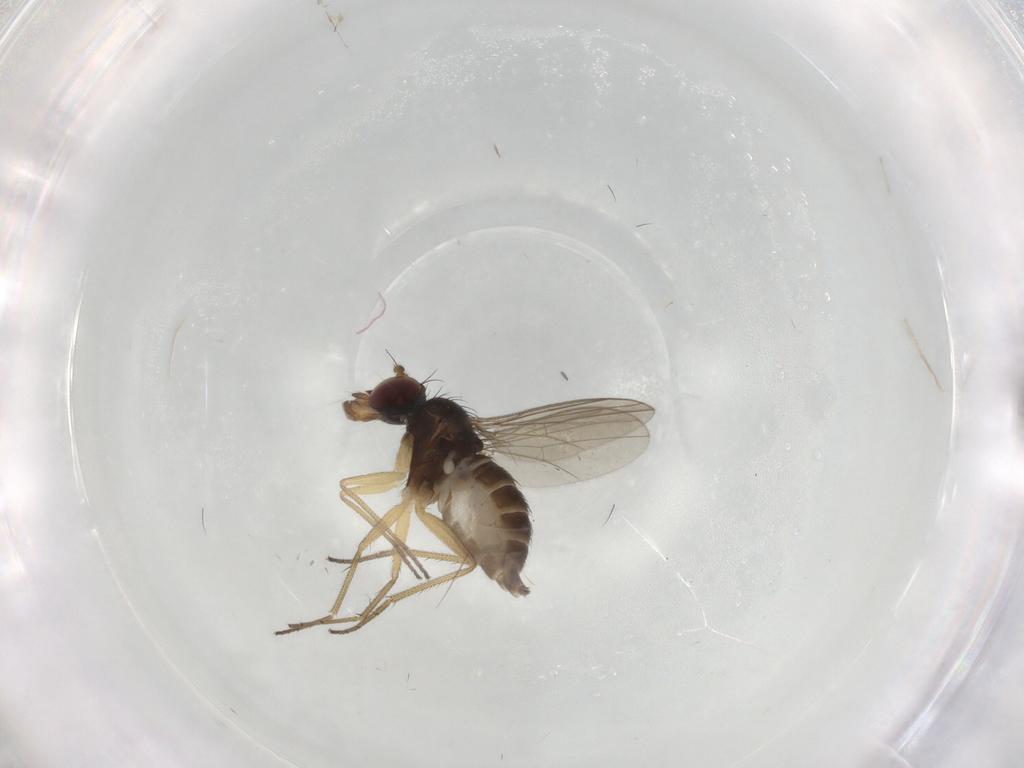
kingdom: Animalia
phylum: Arthropoda
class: Insecta
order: Diptera
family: Dolichopodidae
